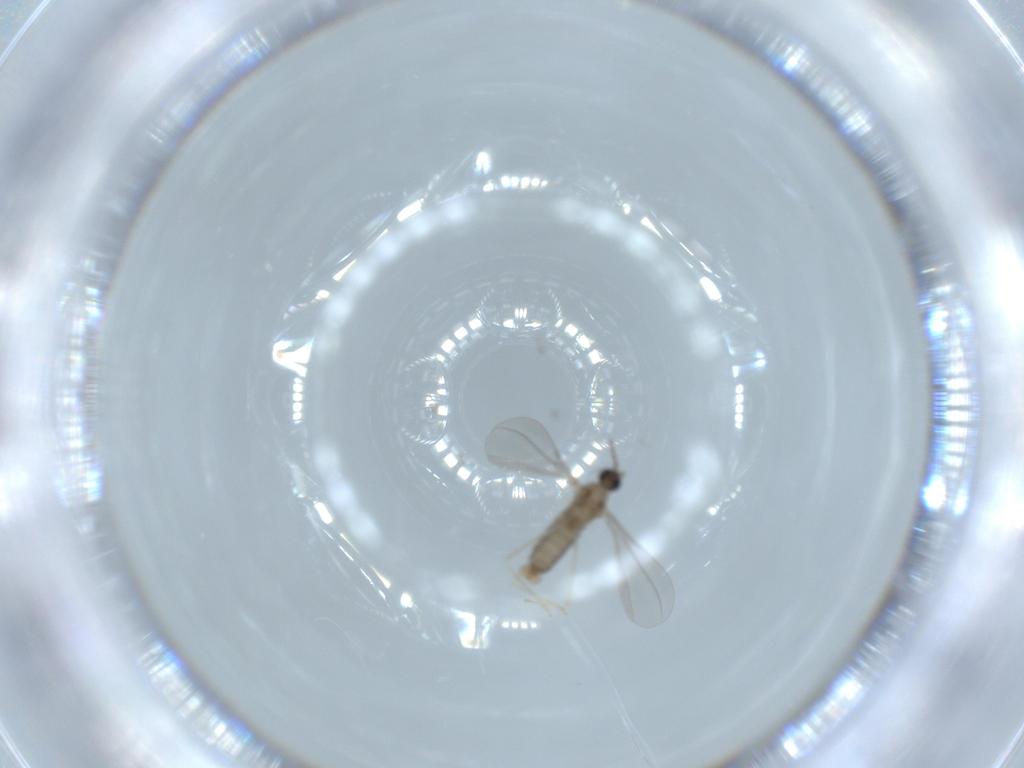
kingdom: Animalia
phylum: Arthropoda
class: Insecta
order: Diptera
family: Cecidomyiidae
